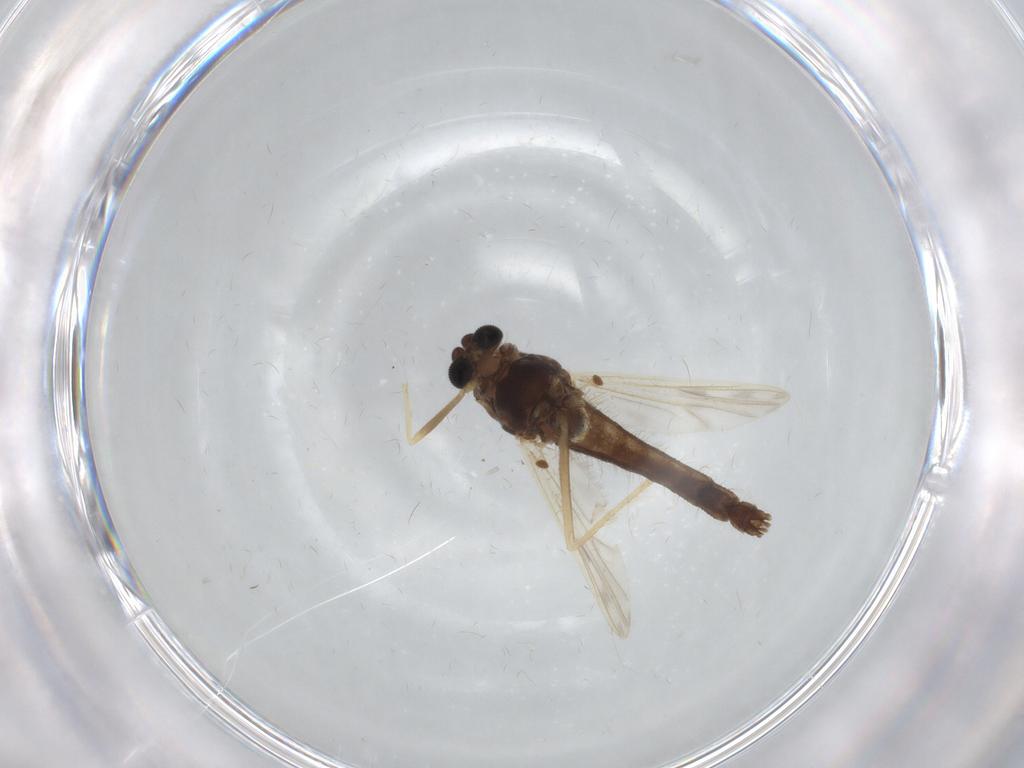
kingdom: Animalia
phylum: Arthropoda
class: Insecta
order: Diptera
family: Chironomidae
